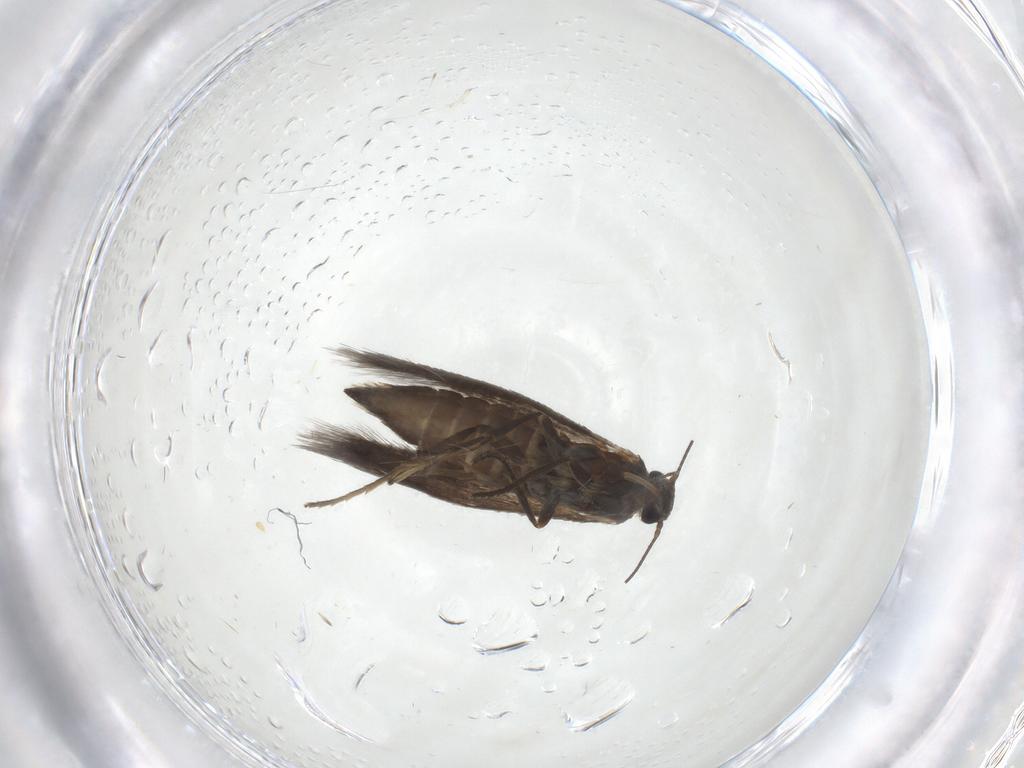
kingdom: Animalia
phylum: Arthropoda
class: Insecta
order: Lepidoptera
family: Heliozelidae
